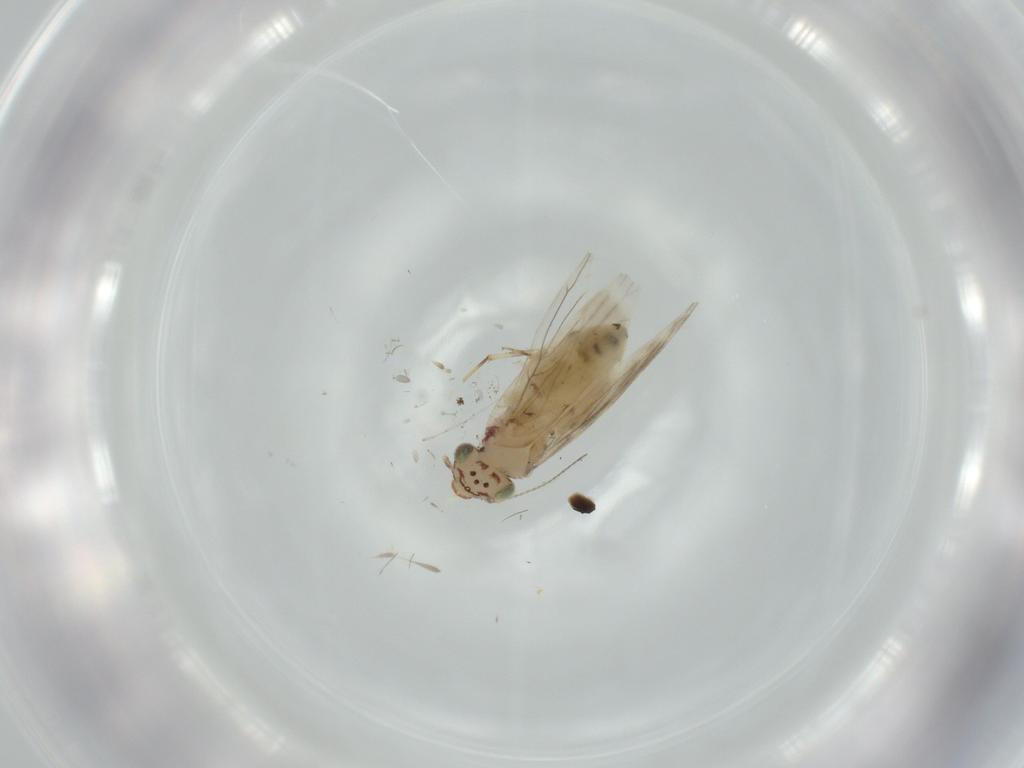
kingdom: Animalia
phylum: Arthropoda
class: Insecta
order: Psocodea
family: Lepidopsocidae
